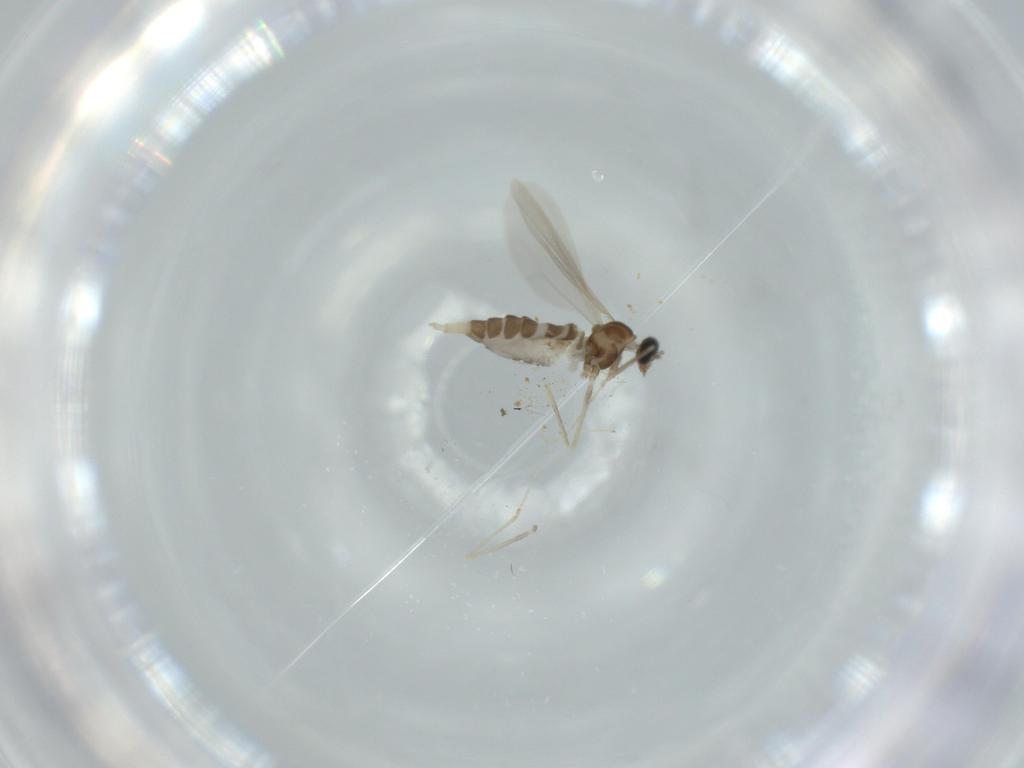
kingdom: Animalia
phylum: Arthropoda
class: Insecta
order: Diptera
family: Cecidomyiidae
